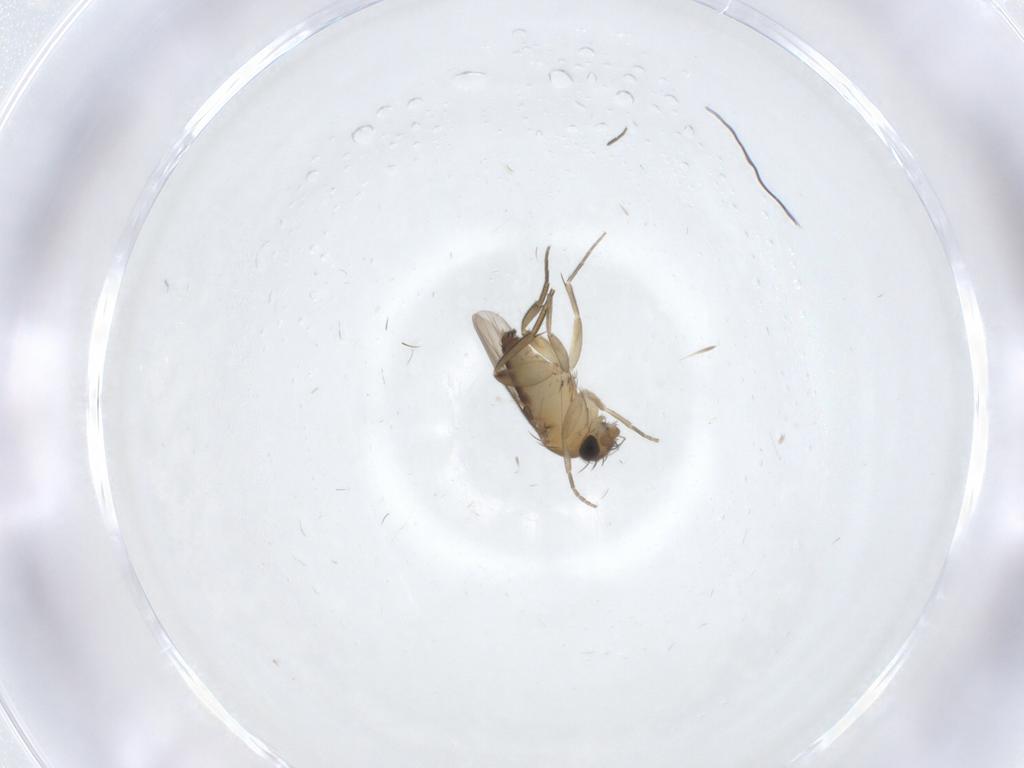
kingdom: Animalia
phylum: Arthropoda
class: Insecta
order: Diptera
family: Phoridae
